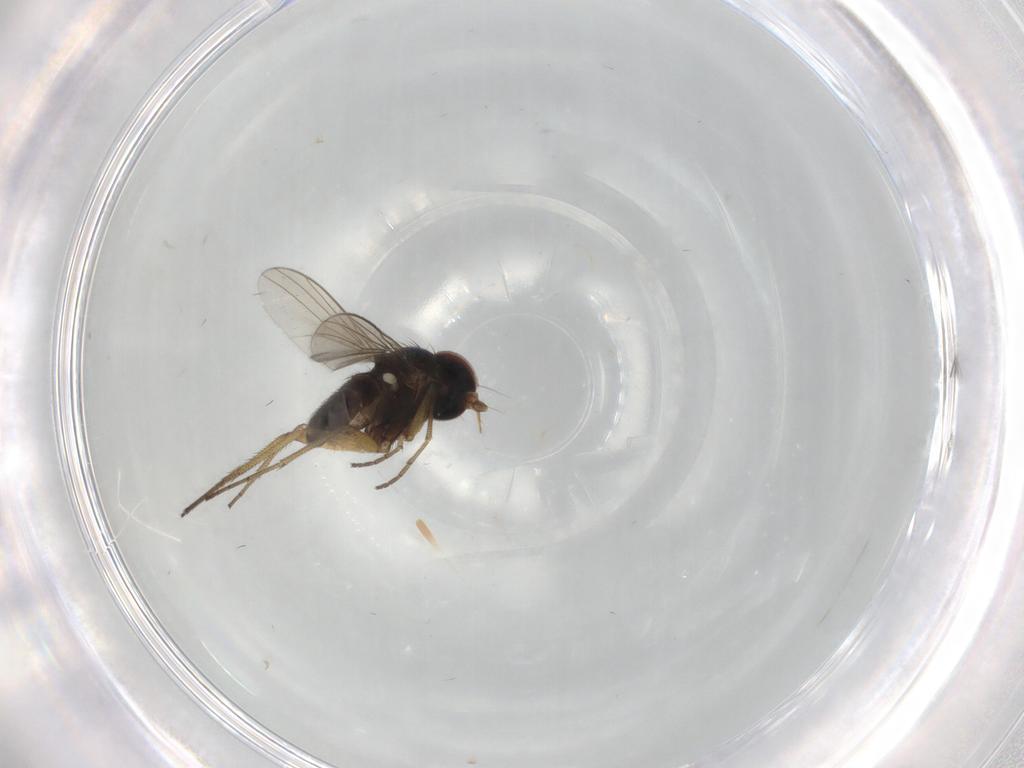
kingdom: Animalia
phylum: Arthropoda
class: Insecta
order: Diptera
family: Dolichopodidae
